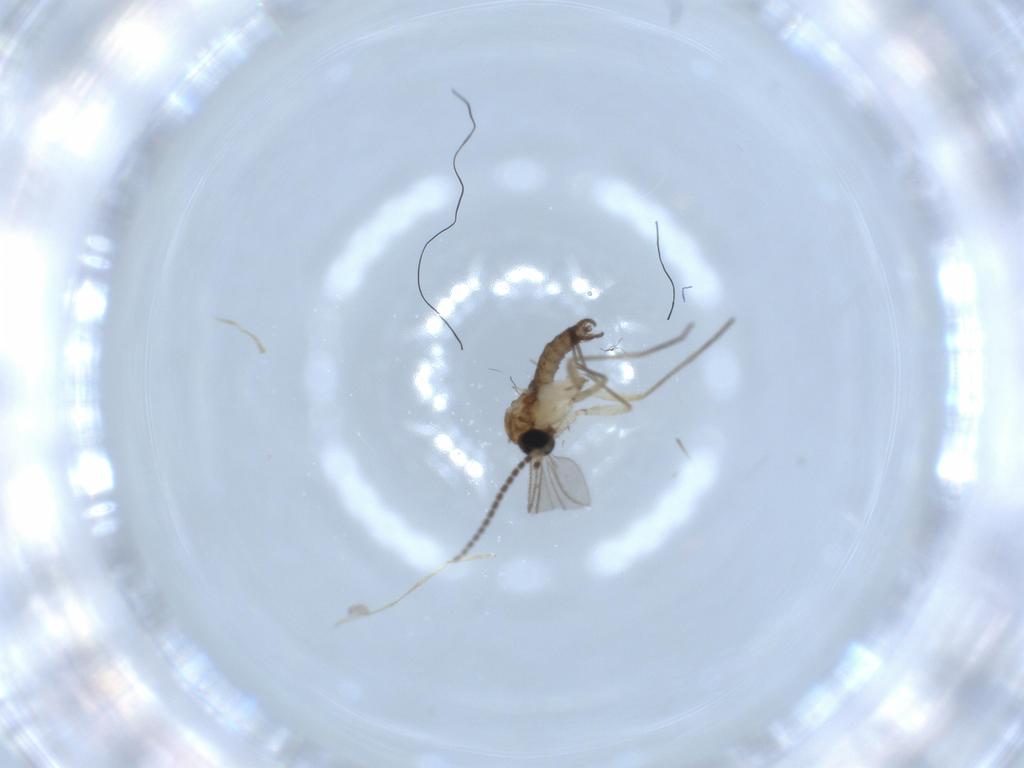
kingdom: Animalia
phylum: Arthropoda
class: Insecta
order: Diptera
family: Sciaridae
